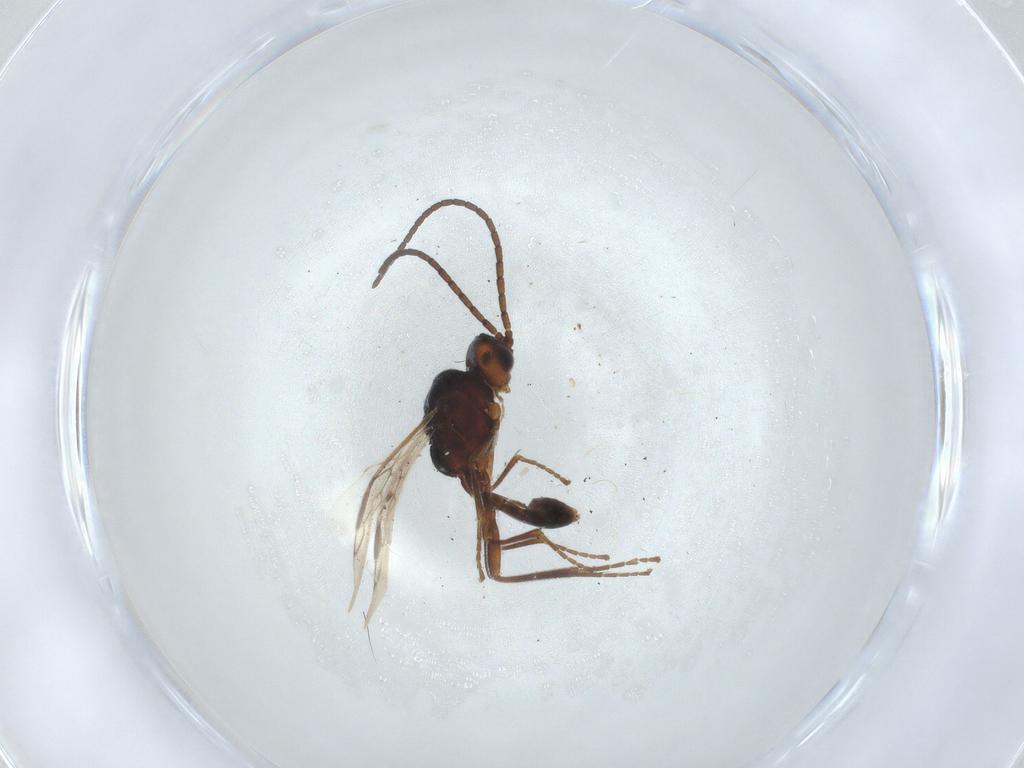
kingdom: Animalia
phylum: Arthropoda
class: Insecta
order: Hymenoptera
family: Braconidae
